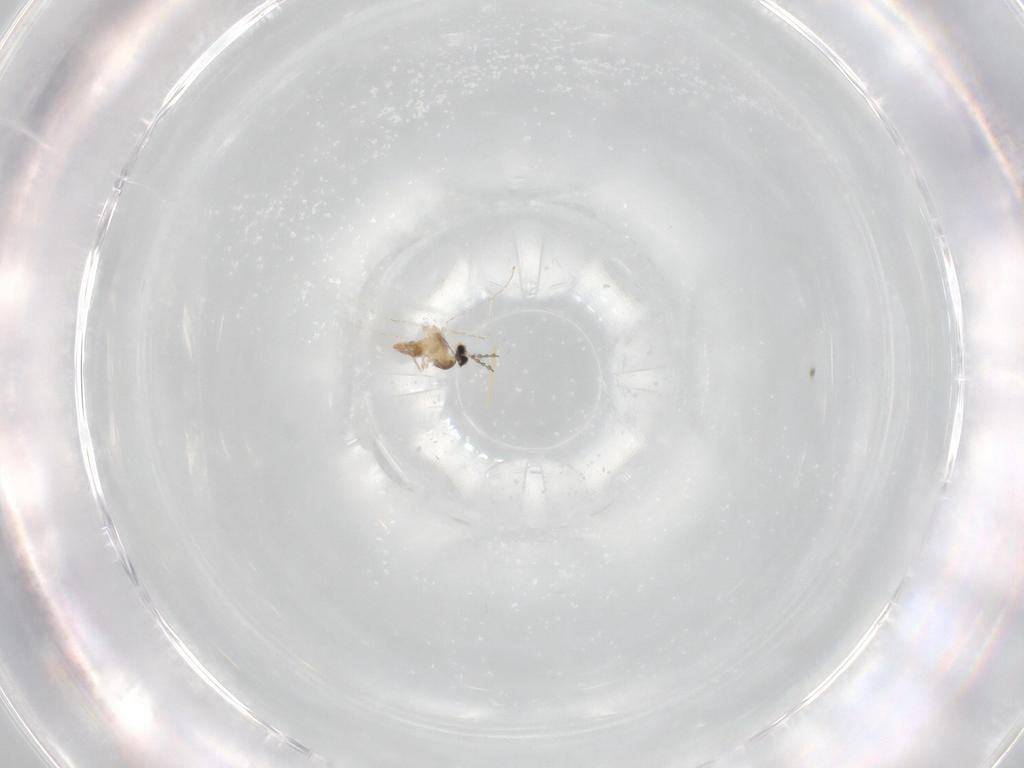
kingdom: Animalia
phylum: Arthropoda
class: Insecta
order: Diptera
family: Cecidomyiidae
